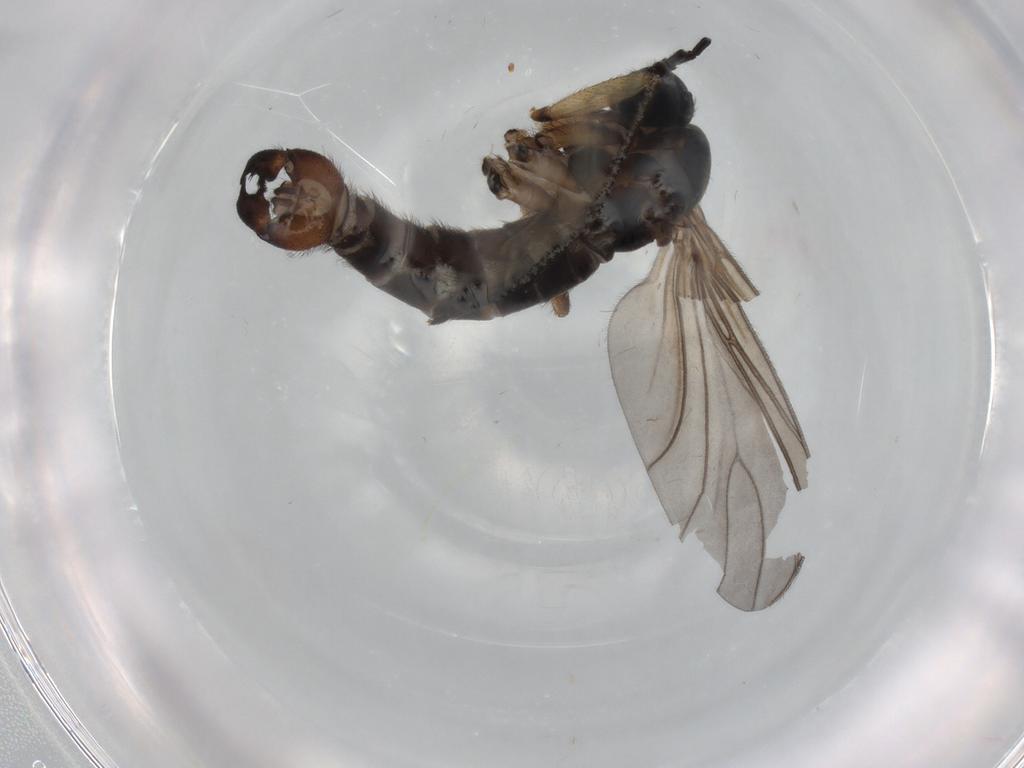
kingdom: Animalia
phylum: Arthropoda
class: Insecta
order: Diptera
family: Sciaridae
